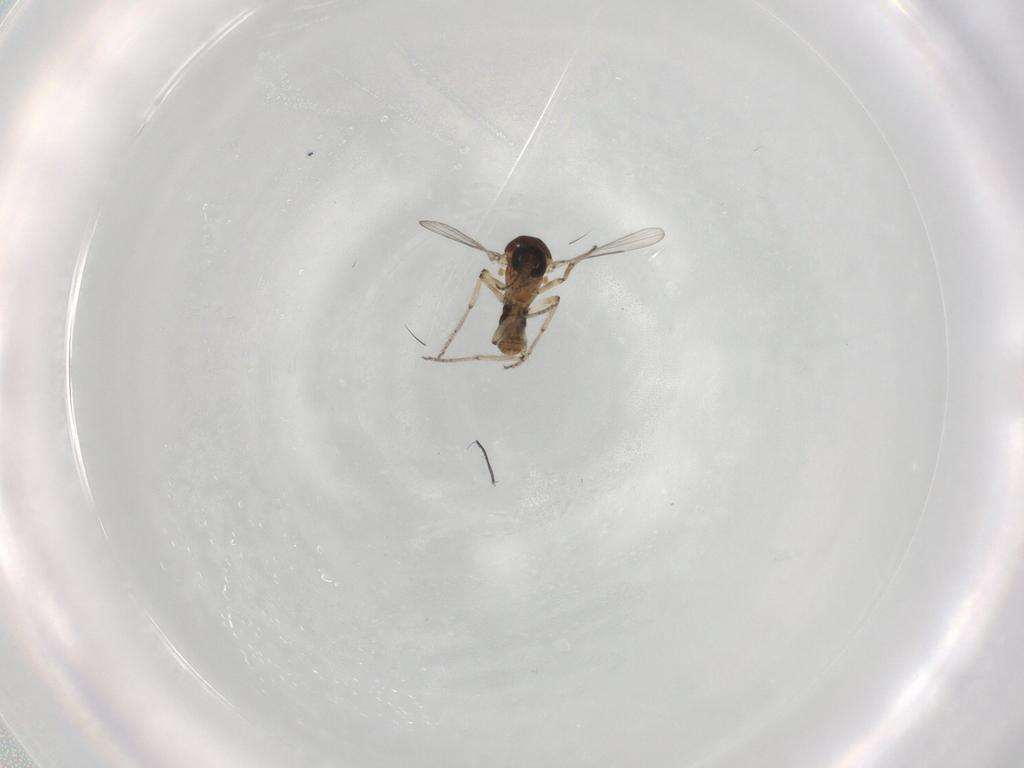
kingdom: Animalia
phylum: Arthropoda
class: Insecta
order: Diptera
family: Ceratopogonidae
